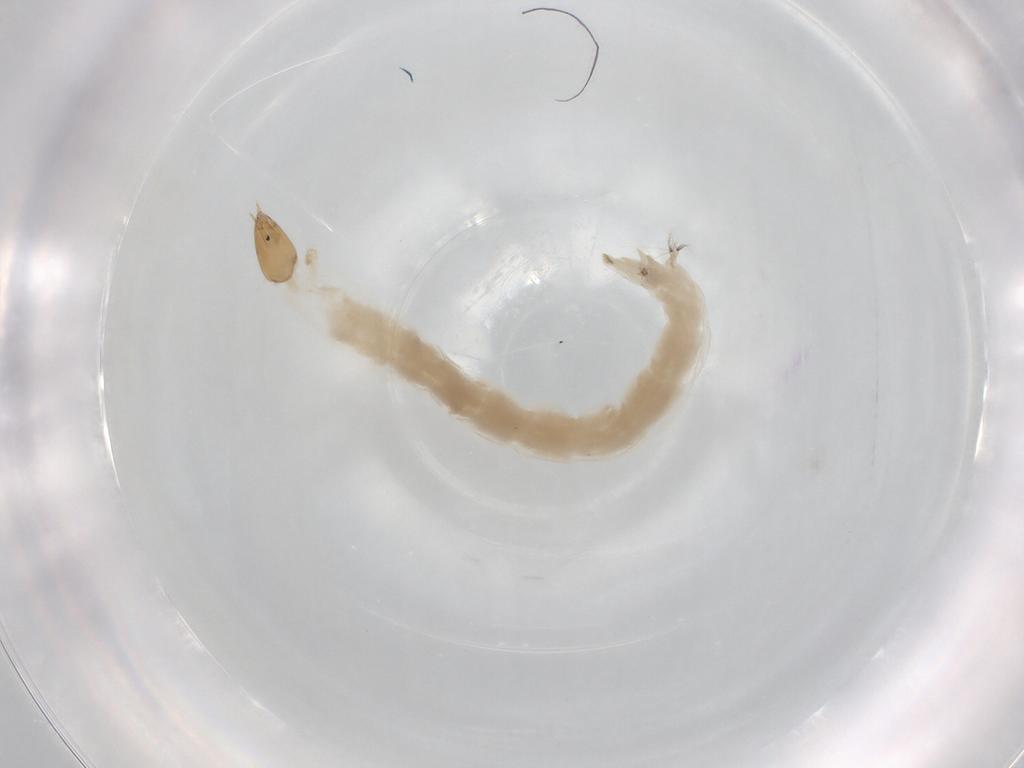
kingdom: Animalia
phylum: Arthropoda
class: Insecta
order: Diptera
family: Chironomidae
